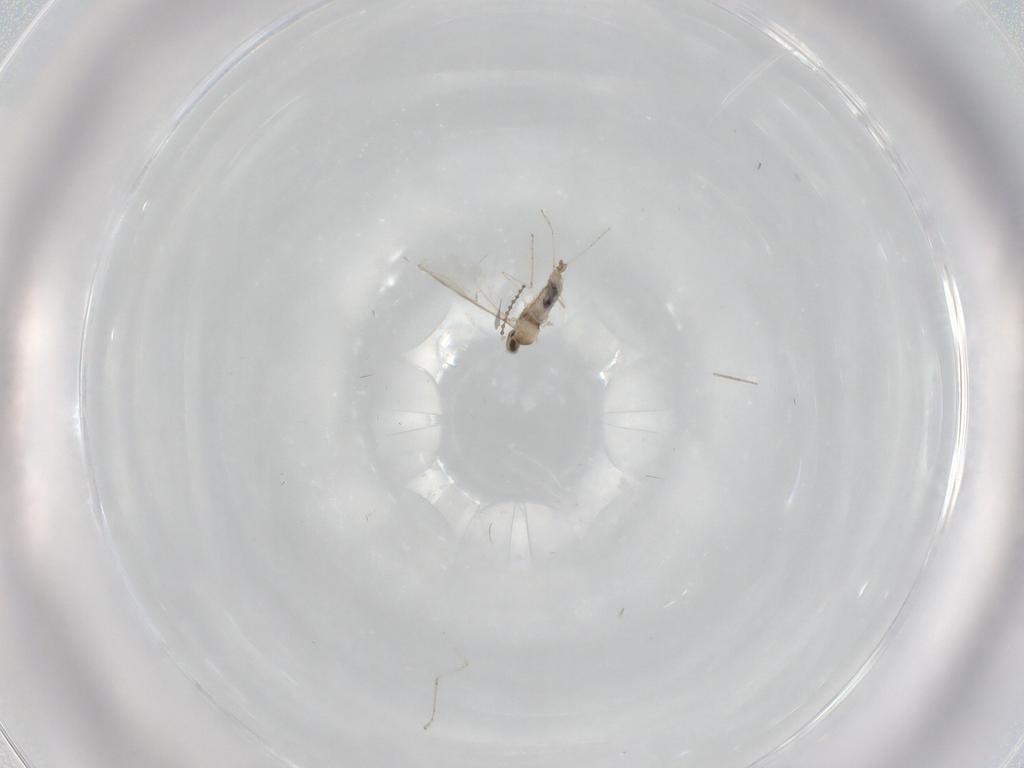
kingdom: Animalia
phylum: Arthropoda
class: Insecta
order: Diptera
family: Chironomidae
